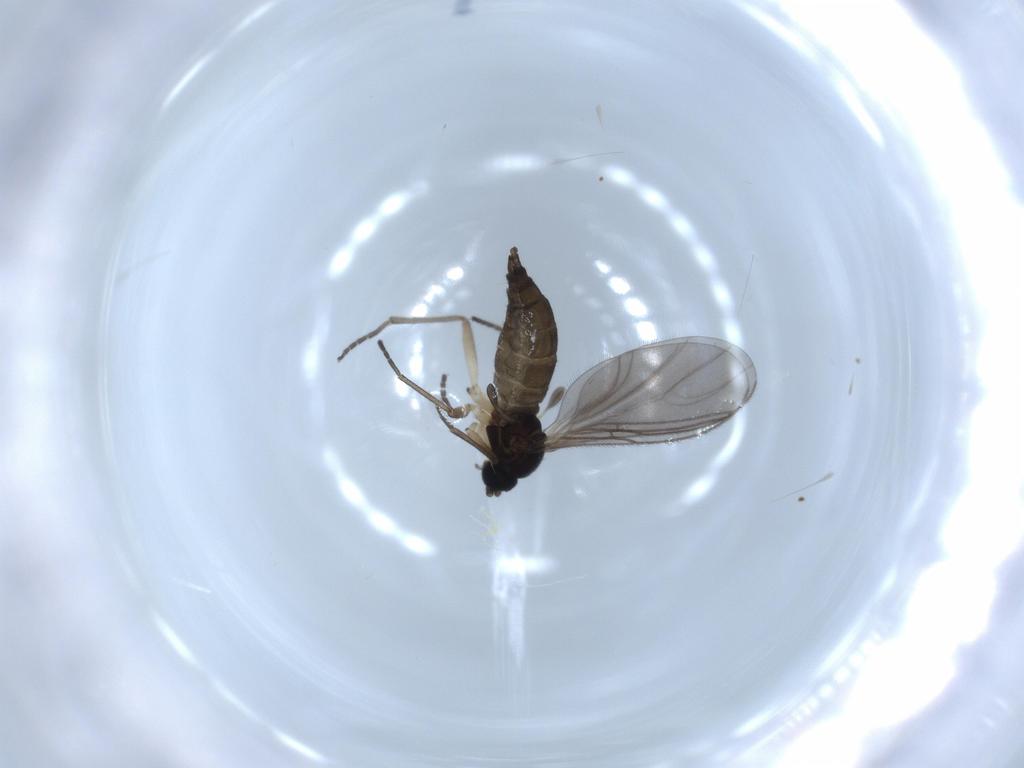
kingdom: Animalia
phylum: Arthropoda
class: Insecta
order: Diptera
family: Sciaridae
